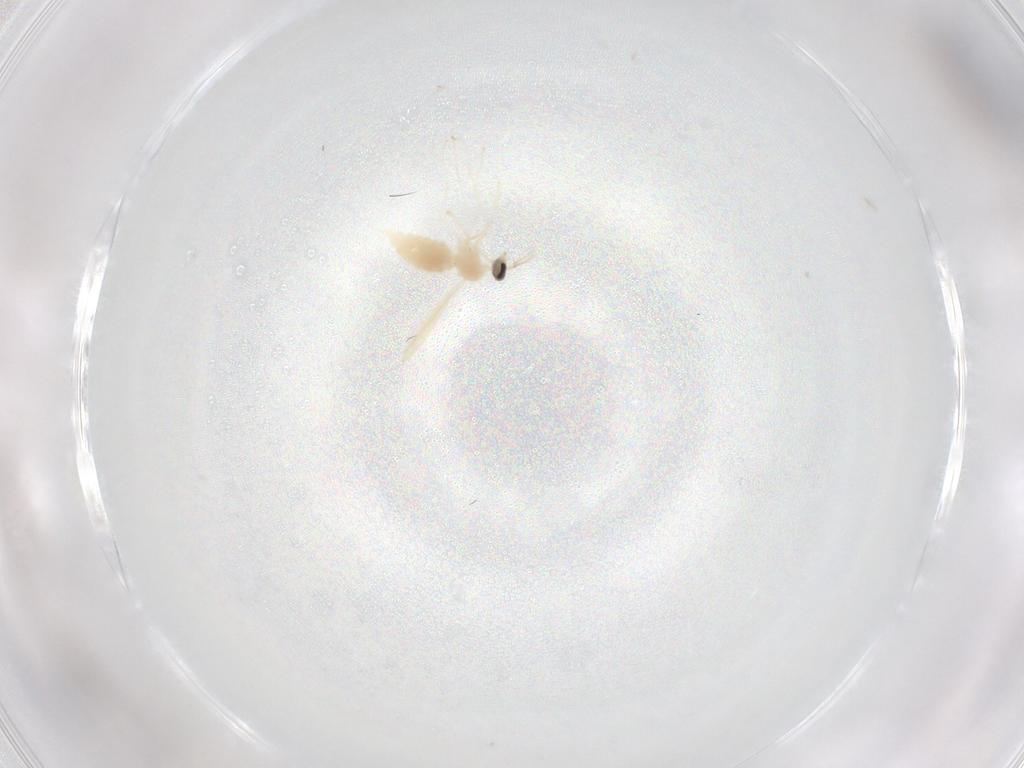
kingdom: Animalia
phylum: Arthropoda
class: Insecta
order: Diptera
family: Cecidomyiidae
